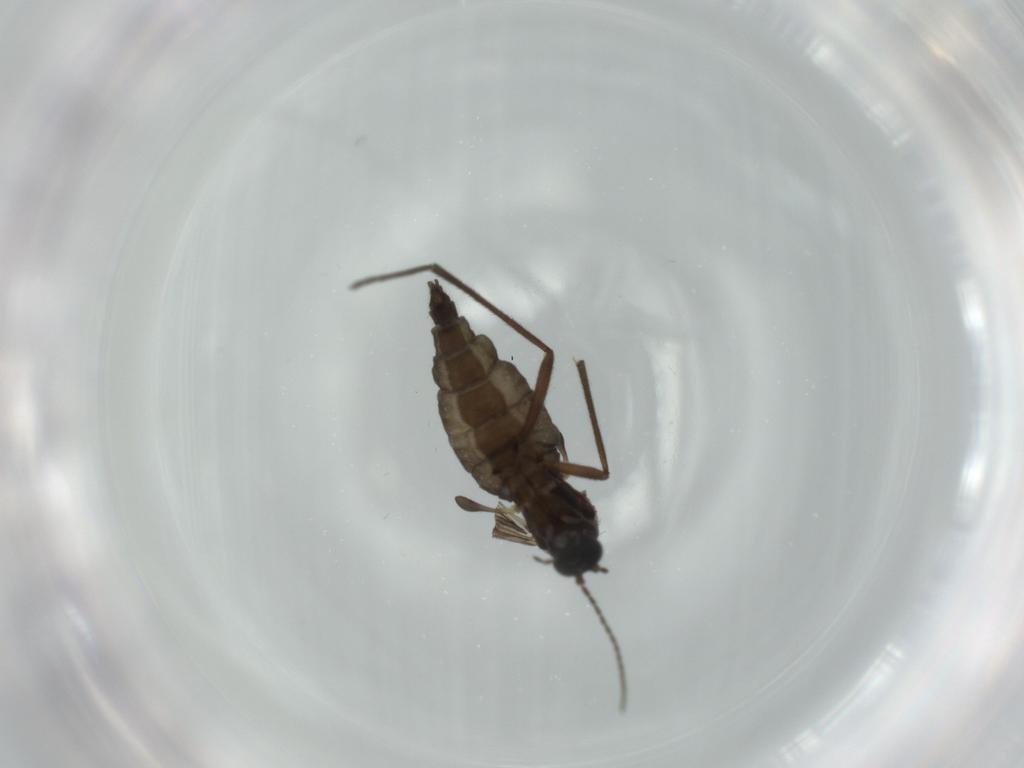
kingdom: Animalia
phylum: Arthropoda
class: Insecta
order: Diptera
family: Sciaridae
